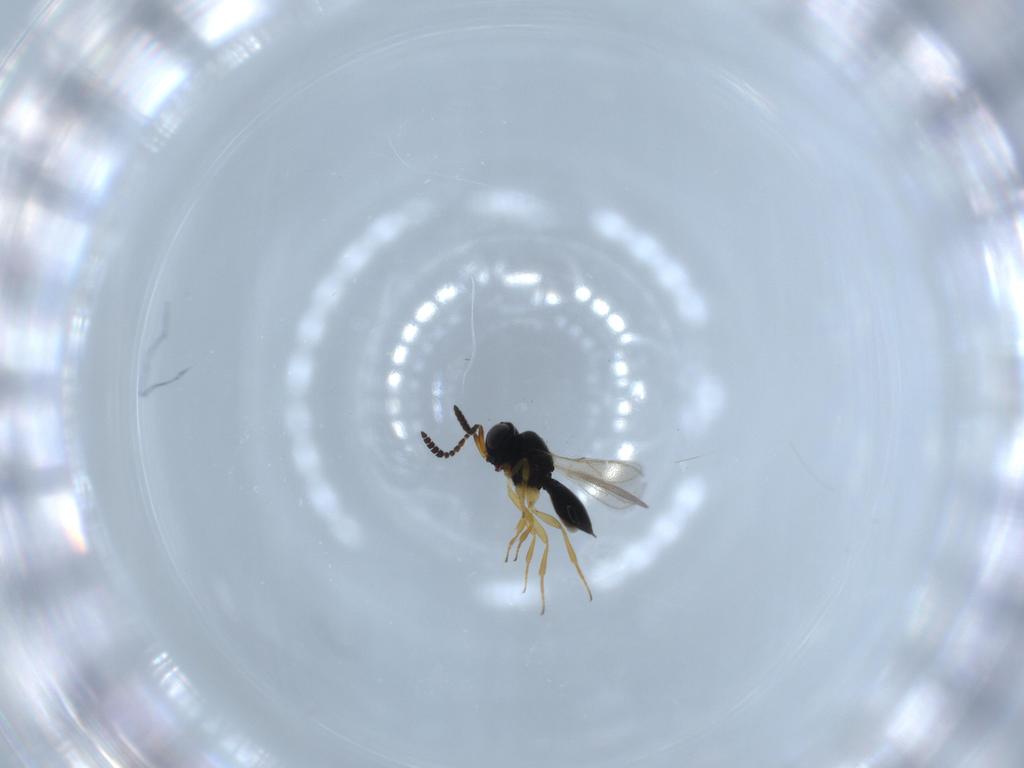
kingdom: Animalia
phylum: Arthropoda
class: Insecta
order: Hymenoptera
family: Scelionidae
